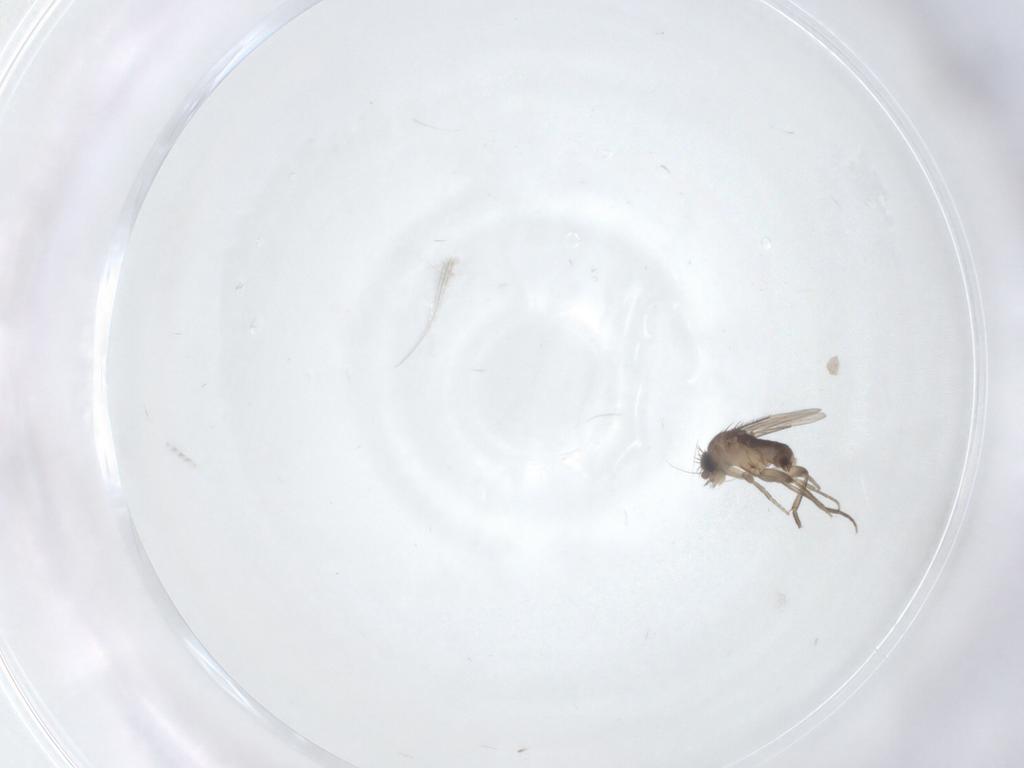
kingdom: Animalia
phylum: Arthropoda
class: Insecta
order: Diptera
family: Phoridae
